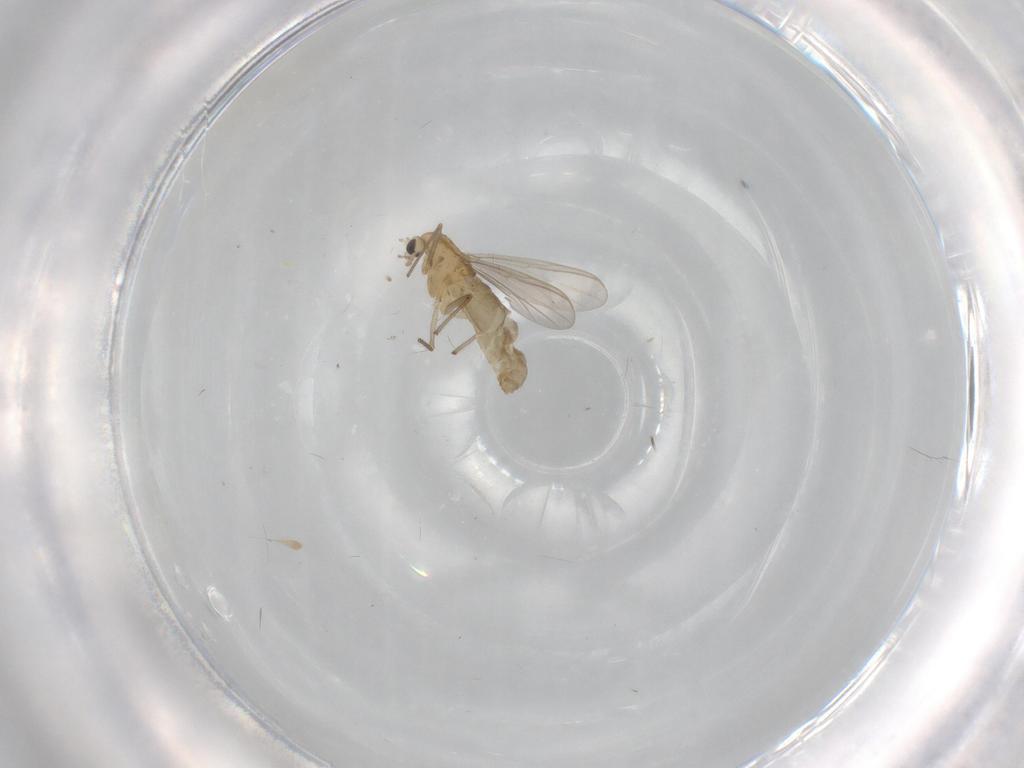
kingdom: Animalia
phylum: Arthropoda
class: Insecta
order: Diptera
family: Chironomidae
